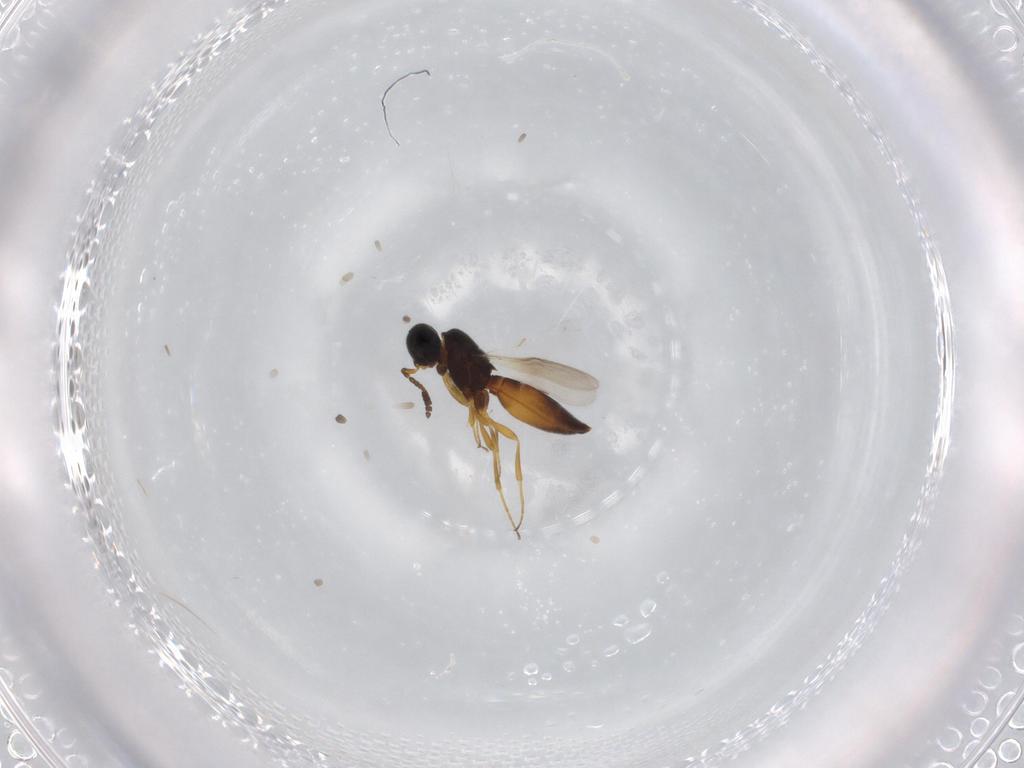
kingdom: Animalia
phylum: Arthropoda
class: Insecta
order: Hymenoptera
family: Scelionidae
